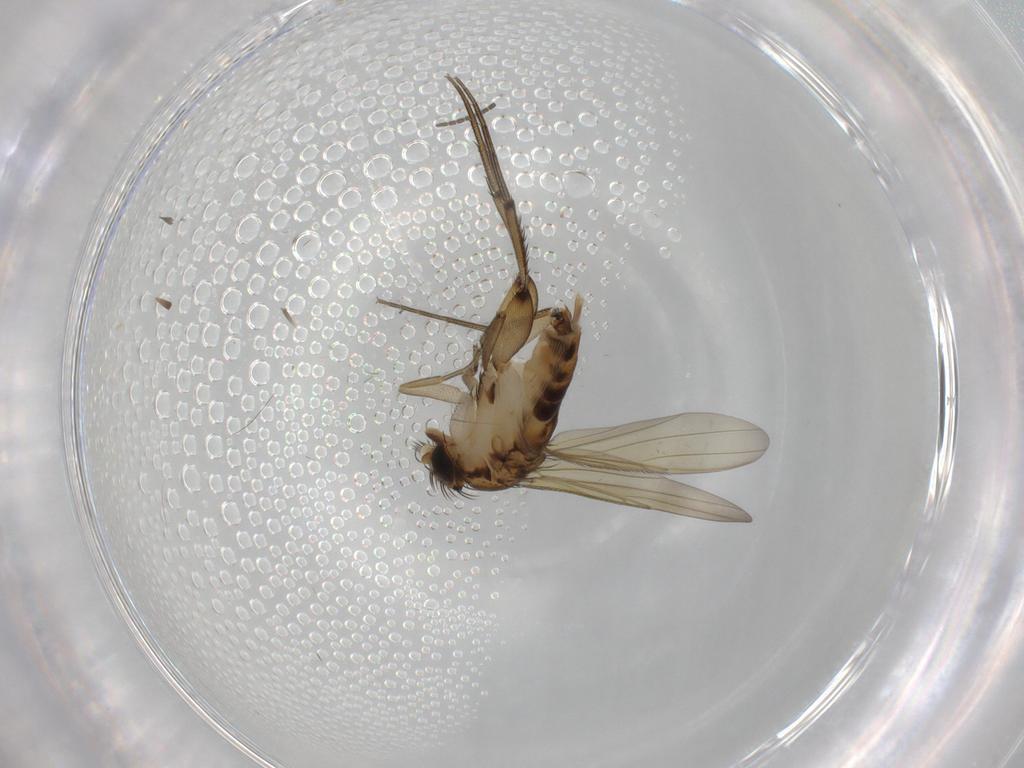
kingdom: Animalia
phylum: Arthropoda
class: Insecta
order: Diptera
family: Phoridae
